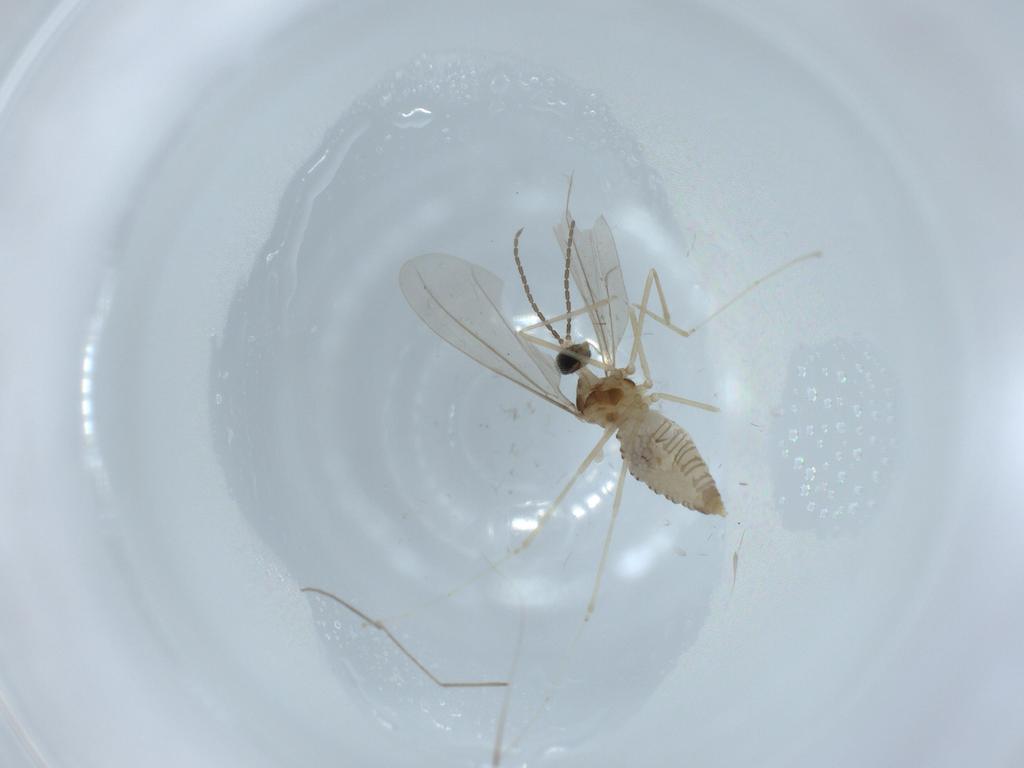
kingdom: Animalia
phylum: Arthropoda
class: Insecta
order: Diptera
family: Cecidomyiidae
